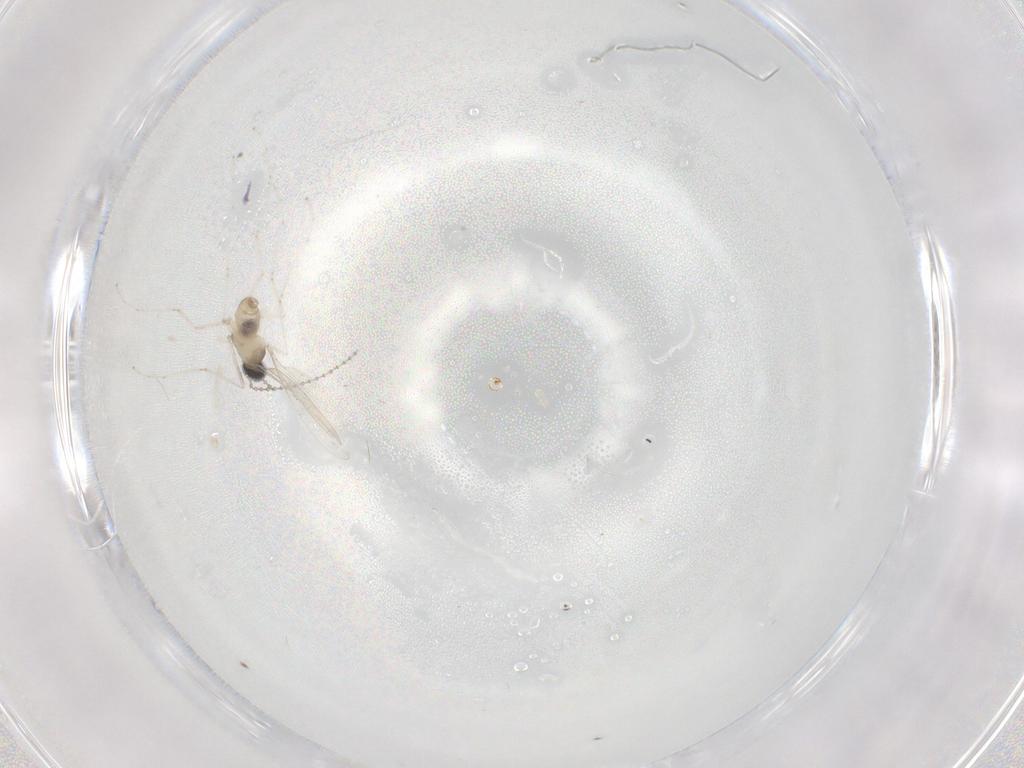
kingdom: Animalia
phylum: Arthropoda
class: Insecta
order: Diptera
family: Cecidomyiidae
